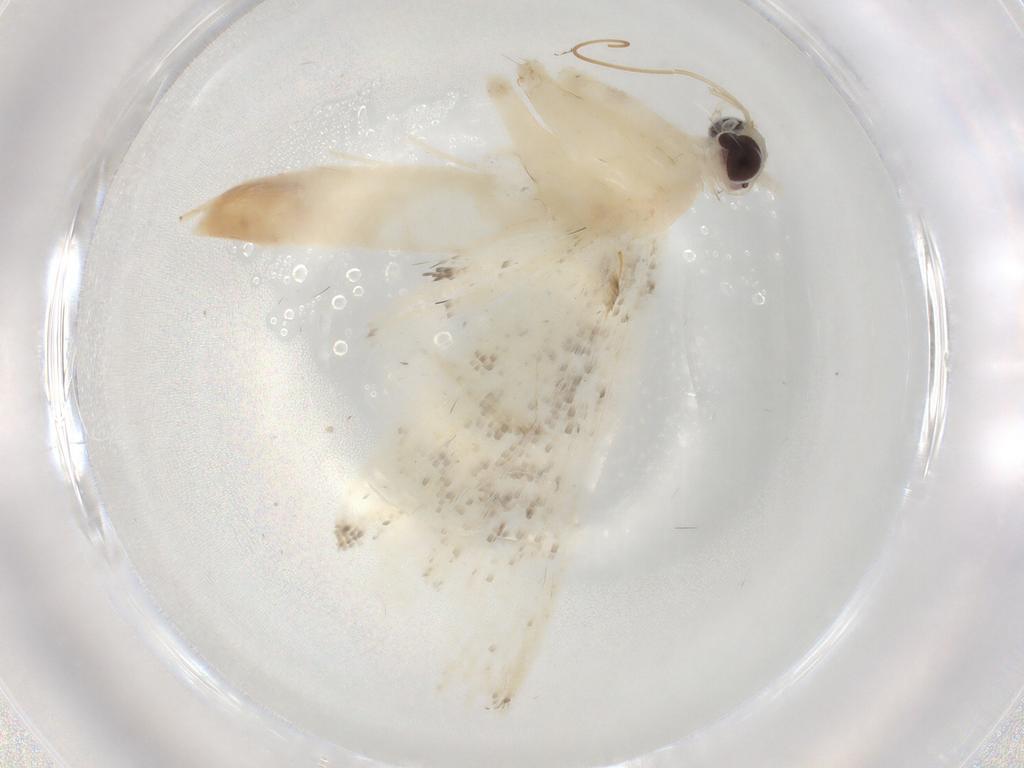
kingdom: Animalia
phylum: Arthropoda
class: Insecta
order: Lepidoptera
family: Crambidae
